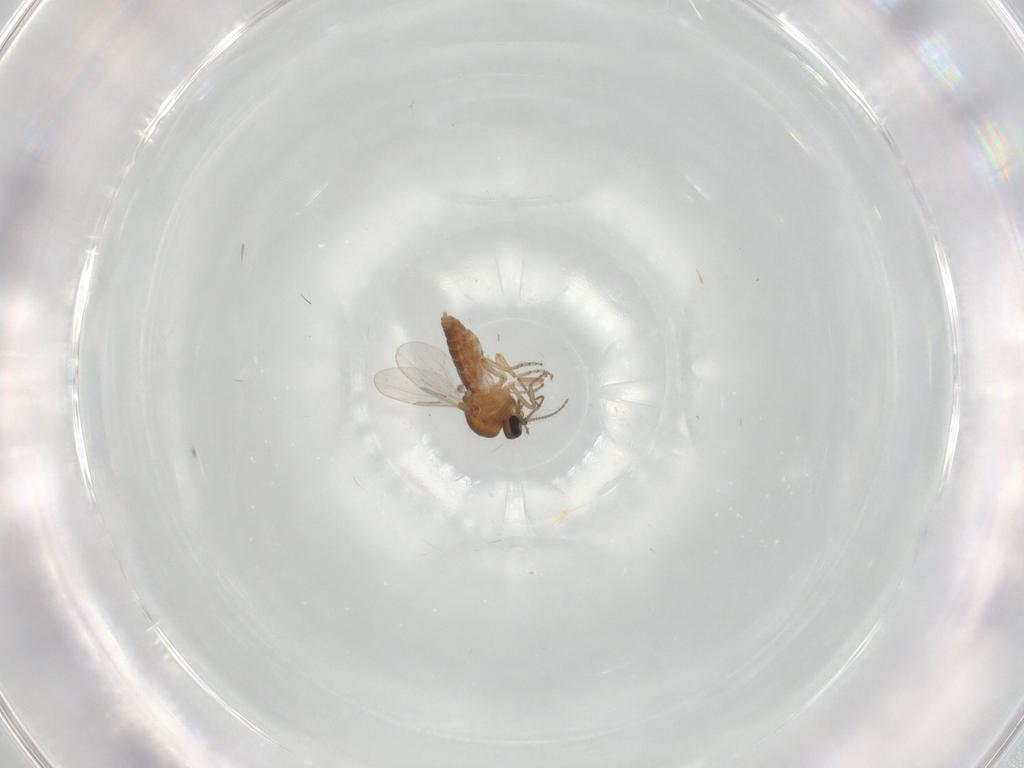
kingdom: Animalia
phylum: Arthropoda
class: Insecta
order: Diptera
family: Ceratopogonidae
